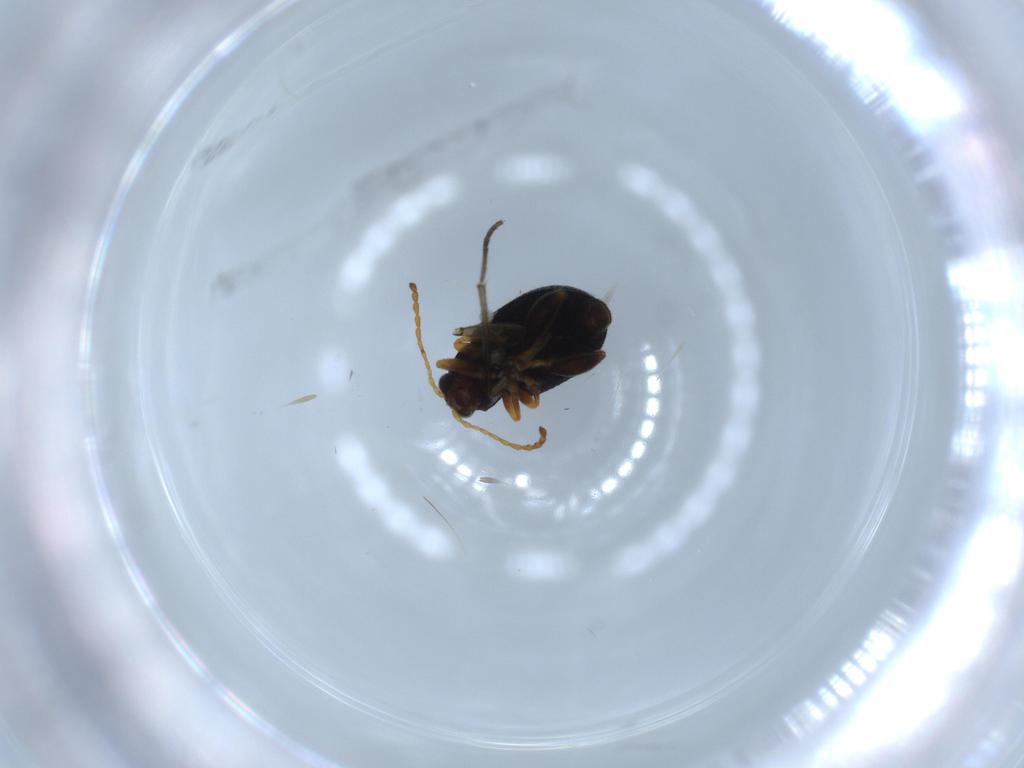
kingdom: Animalia
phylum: Arthropoda
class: Insecta
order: Coleoptera
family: Chrysomelidae
